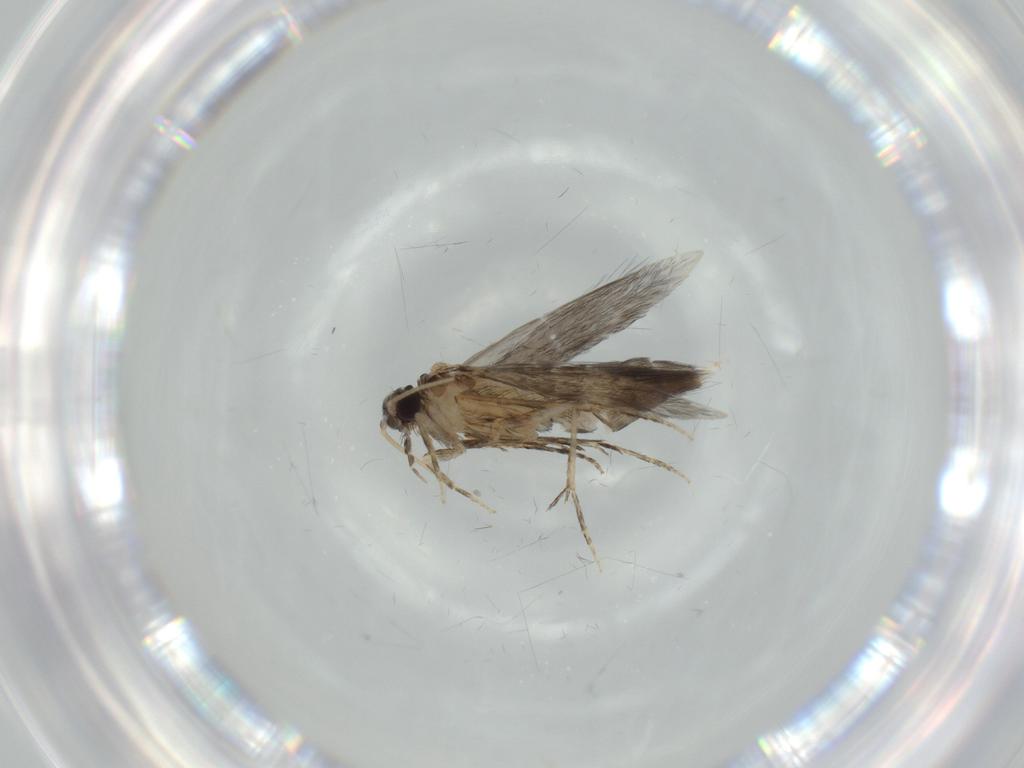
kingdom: Animalia
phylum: Arthropoda
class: Insecta
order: Trichoptera
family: Hydroptilidae
